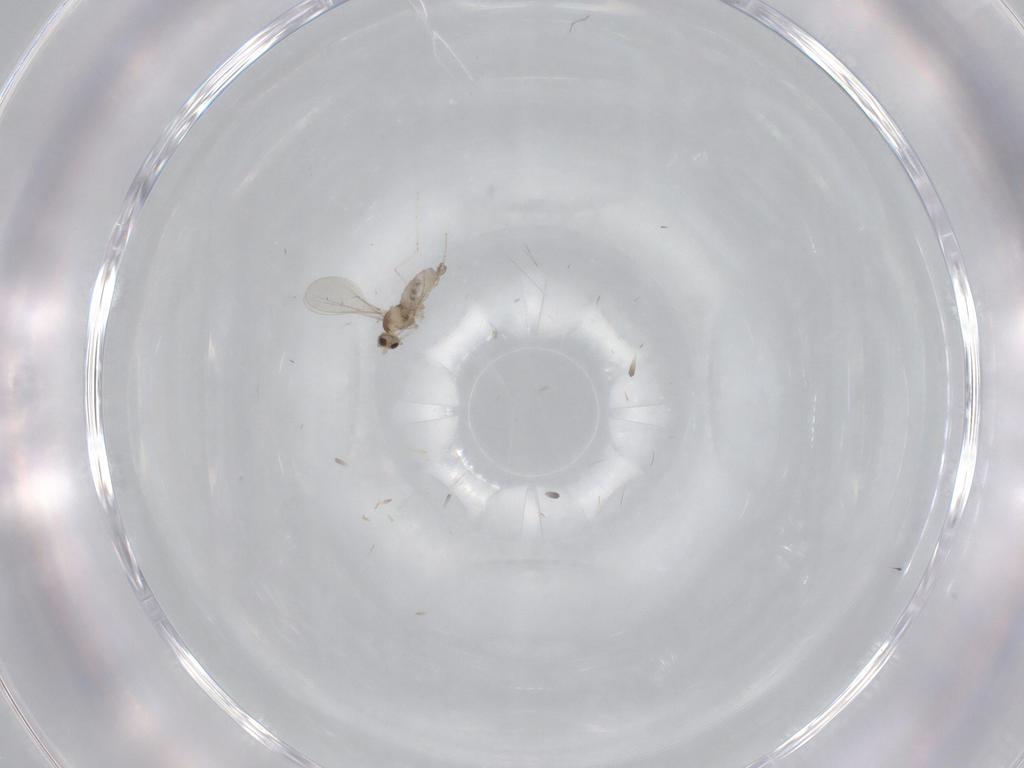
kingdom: Animalia
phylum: Arthropoda
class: Insecta
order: Diptera
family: Cecidomyiidae
